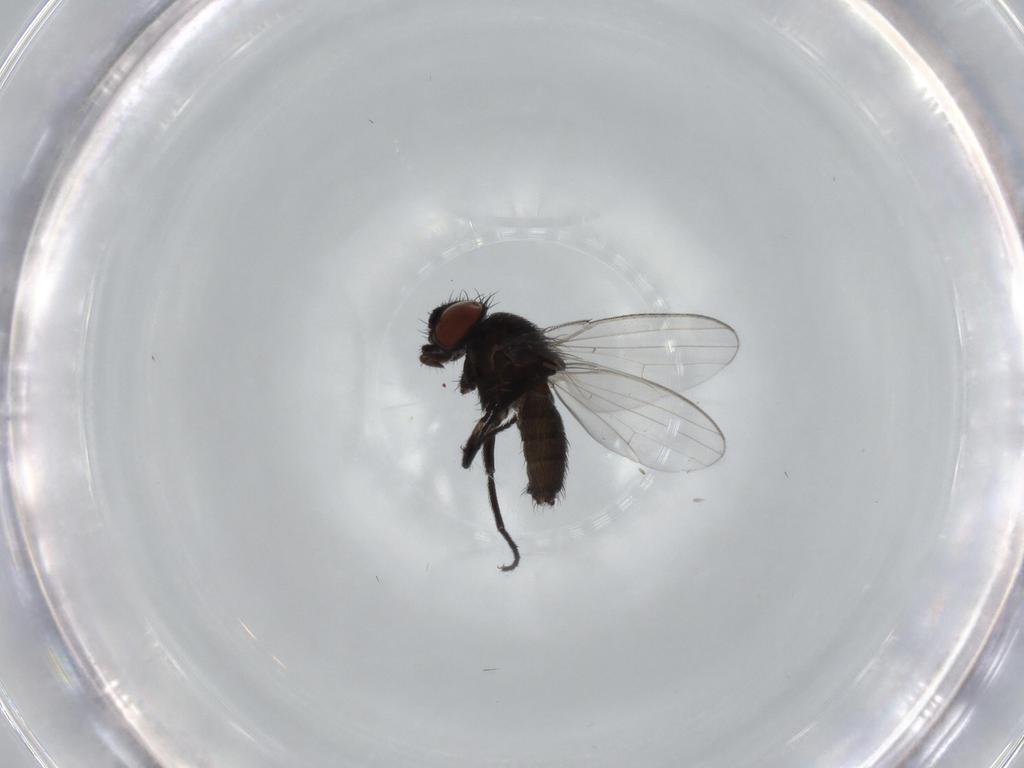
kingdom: Animalia
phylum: Arthropoda
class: Insecta
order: Diptera
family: Milichiidae
